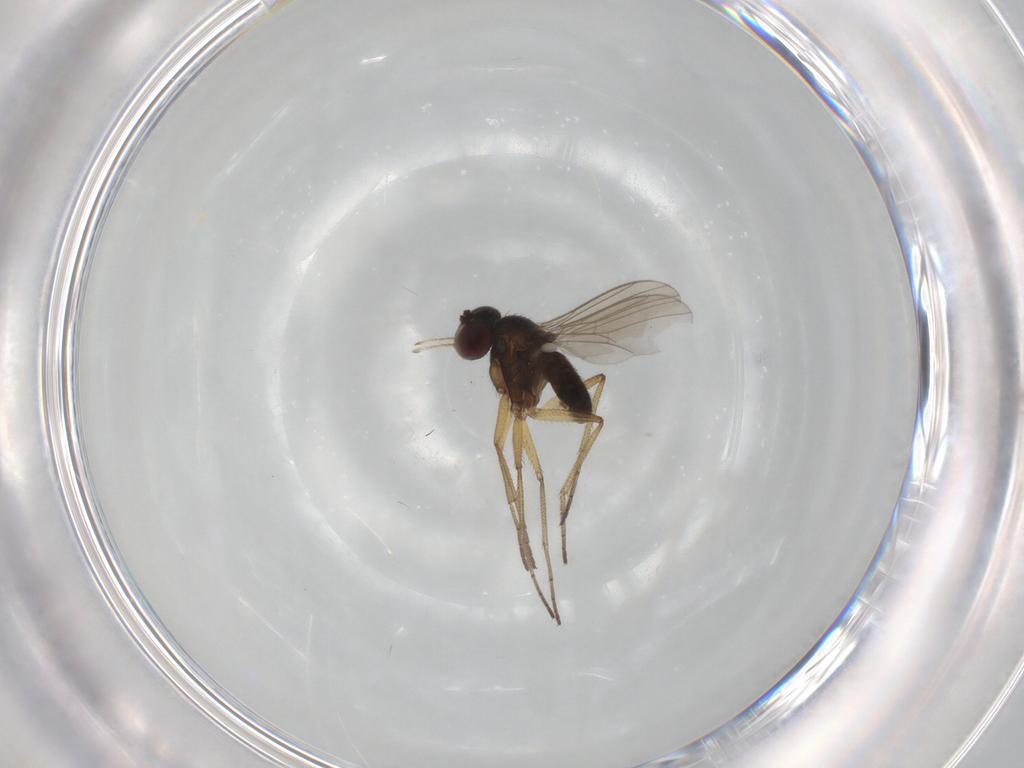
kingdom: Animalia
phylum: Arthropoda
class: Insecta
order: Diptera
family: Dolichopodidae
